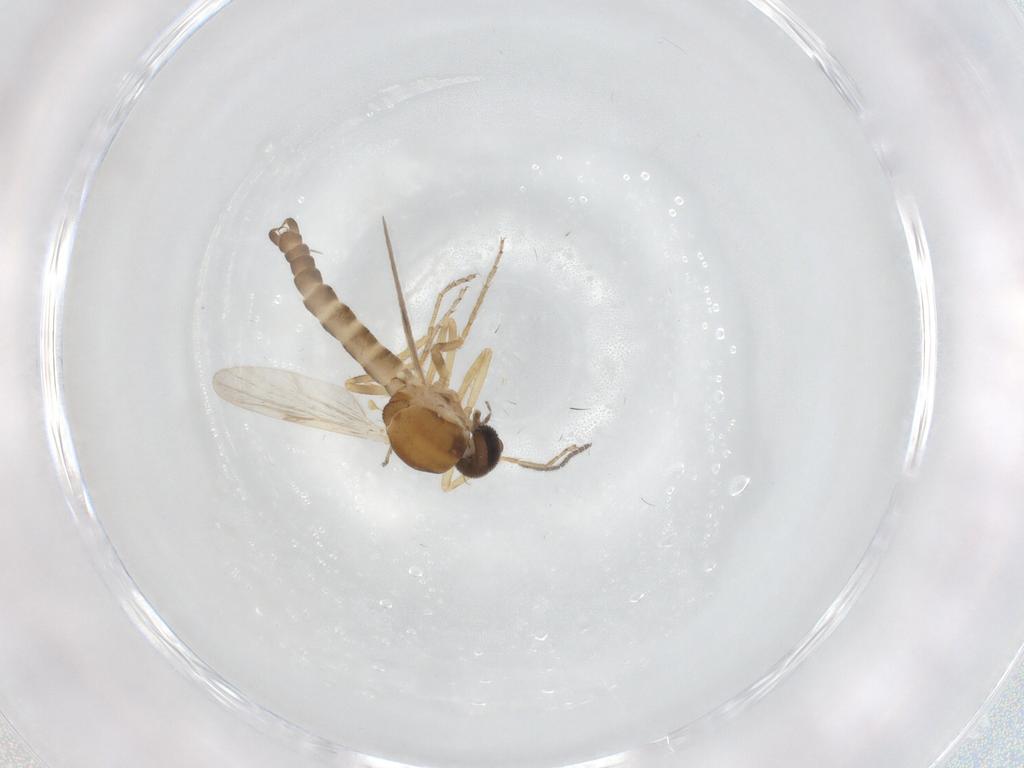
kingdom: Animalia
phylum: Arthropoda
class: Insecta
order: Diptera
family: Ceratopogonidae
